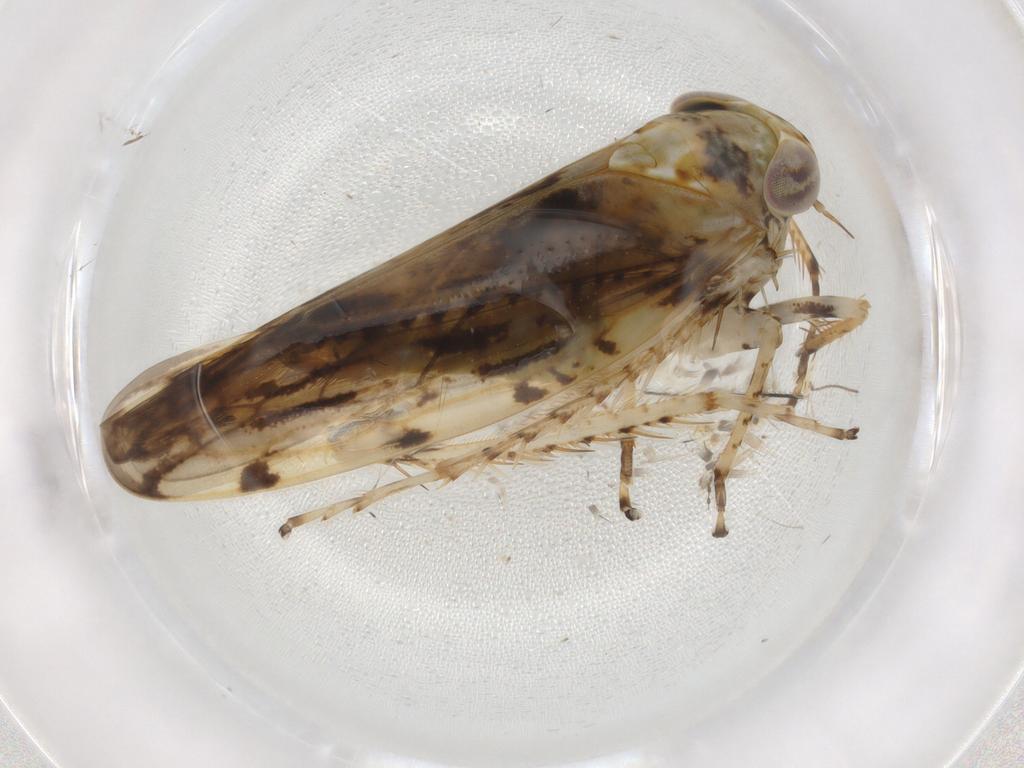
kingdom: Animalia
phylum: Arthropoda
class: Insecta
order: Hemiptera
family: Cicadellidae
